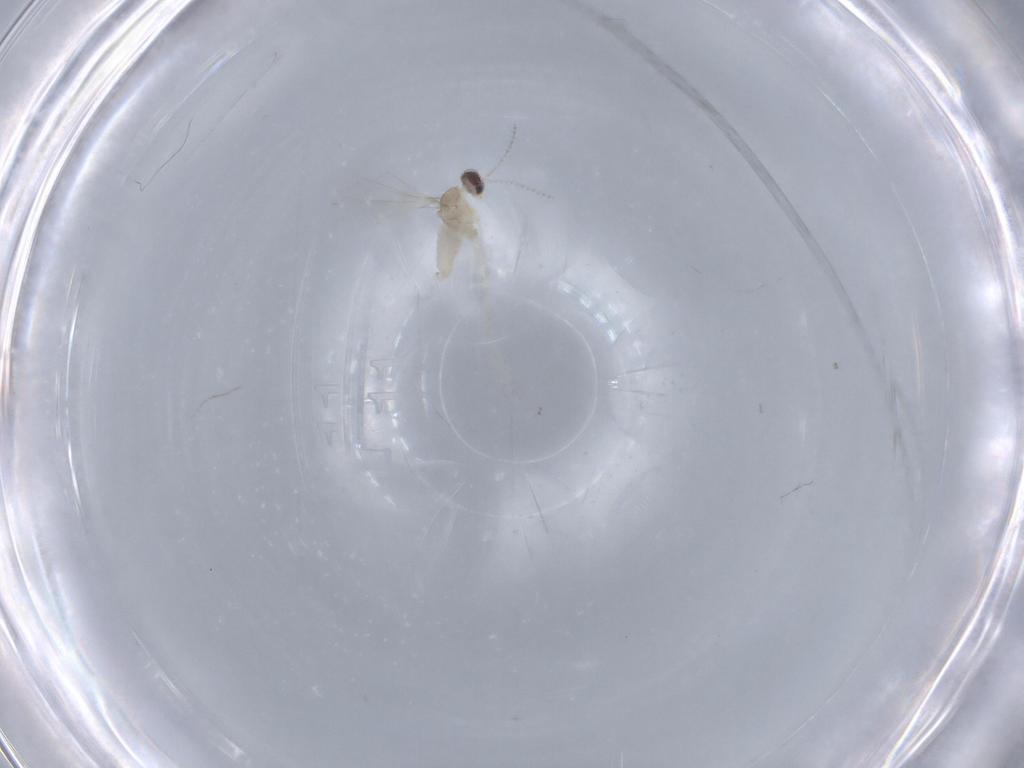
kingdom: Animalia
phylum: Arthropoda
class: Insecta
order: Diptera
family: Cecidomyiidae
